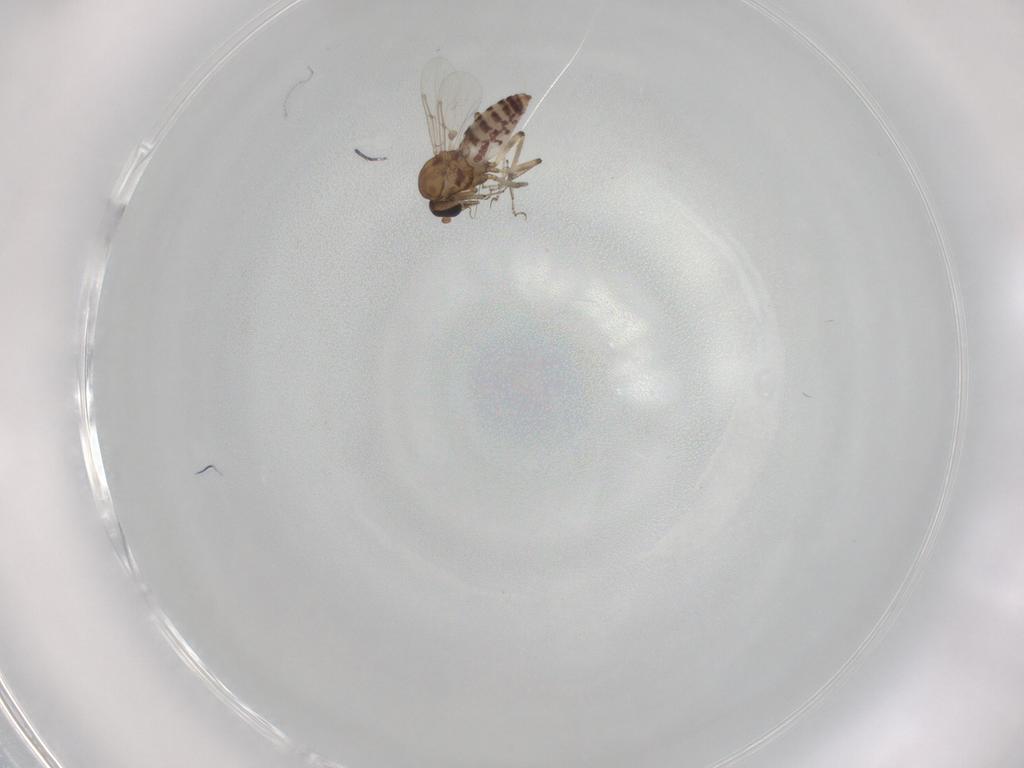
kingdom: Animalia
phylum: Arthropoda
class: Insecta
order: Diptera
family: Ceratopogonidae
